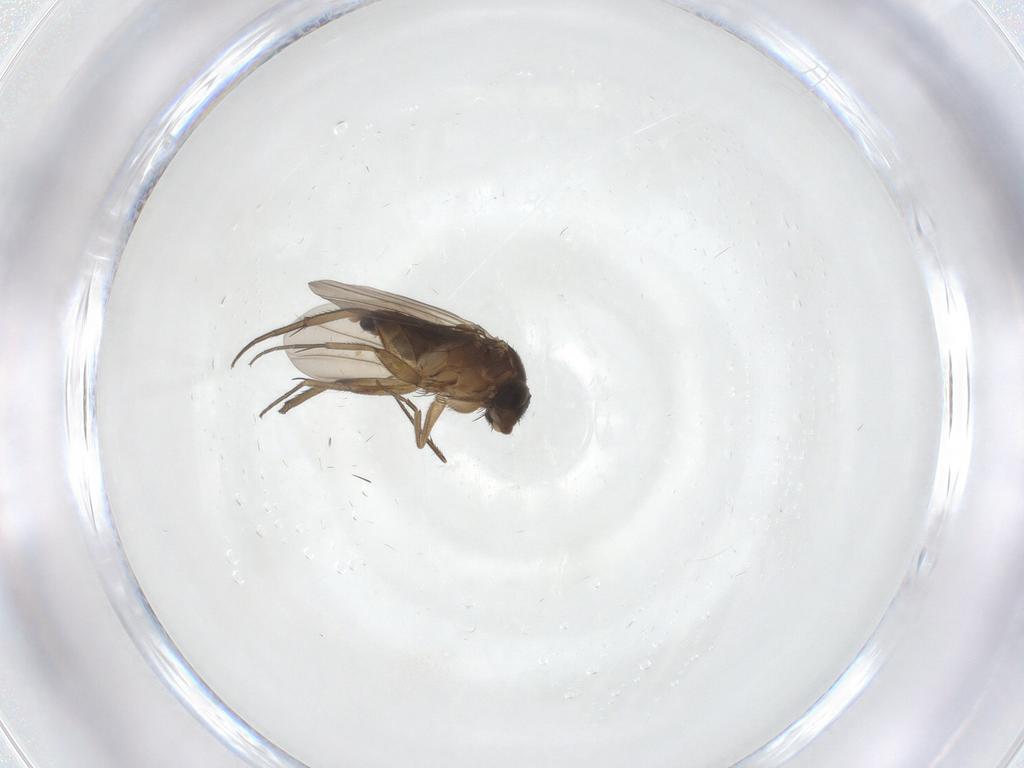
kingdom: Animalia
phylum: Arthropoda
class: Insecta
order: Diptera
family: Phoridae
